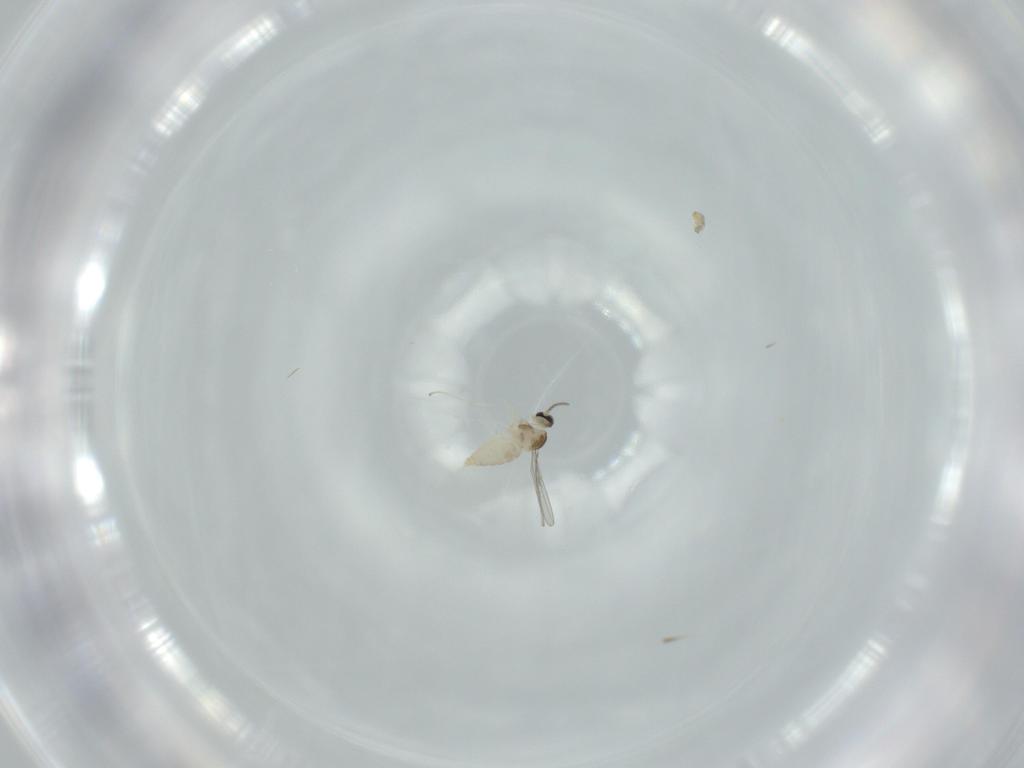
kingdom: Animalia
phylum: Arthropoda
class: Insecta
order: Diptera
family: Cecidomyiidae
